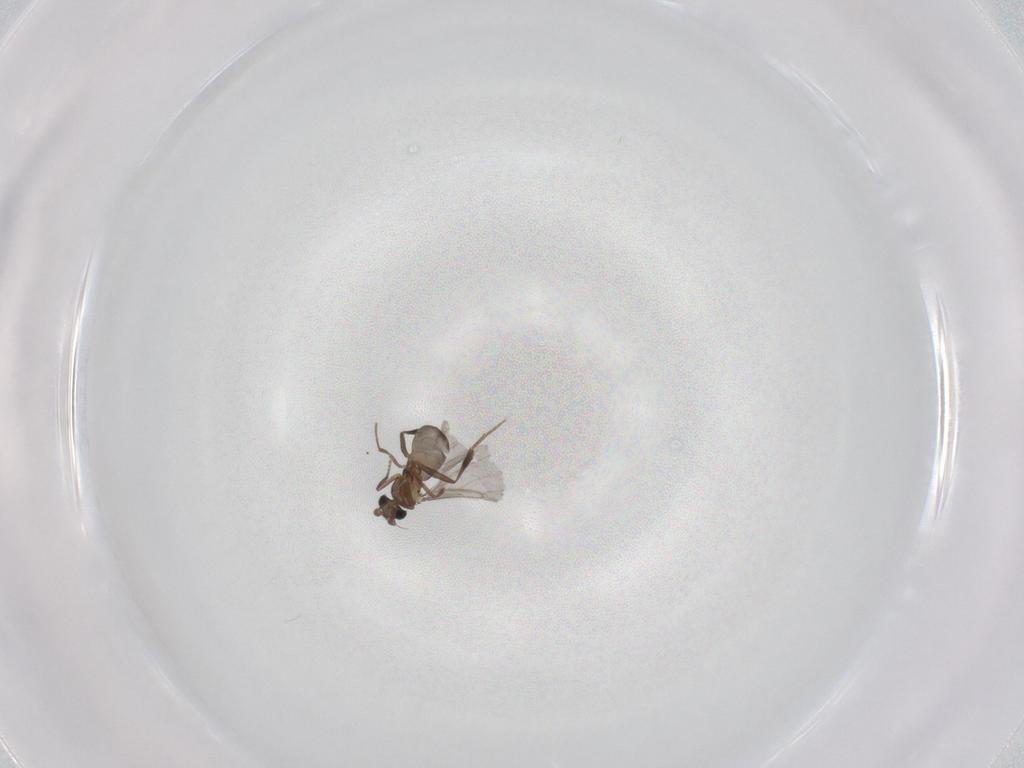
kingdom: Animalia
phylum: Arthropoda
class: Insecta
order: Diptera
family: Phoridae
